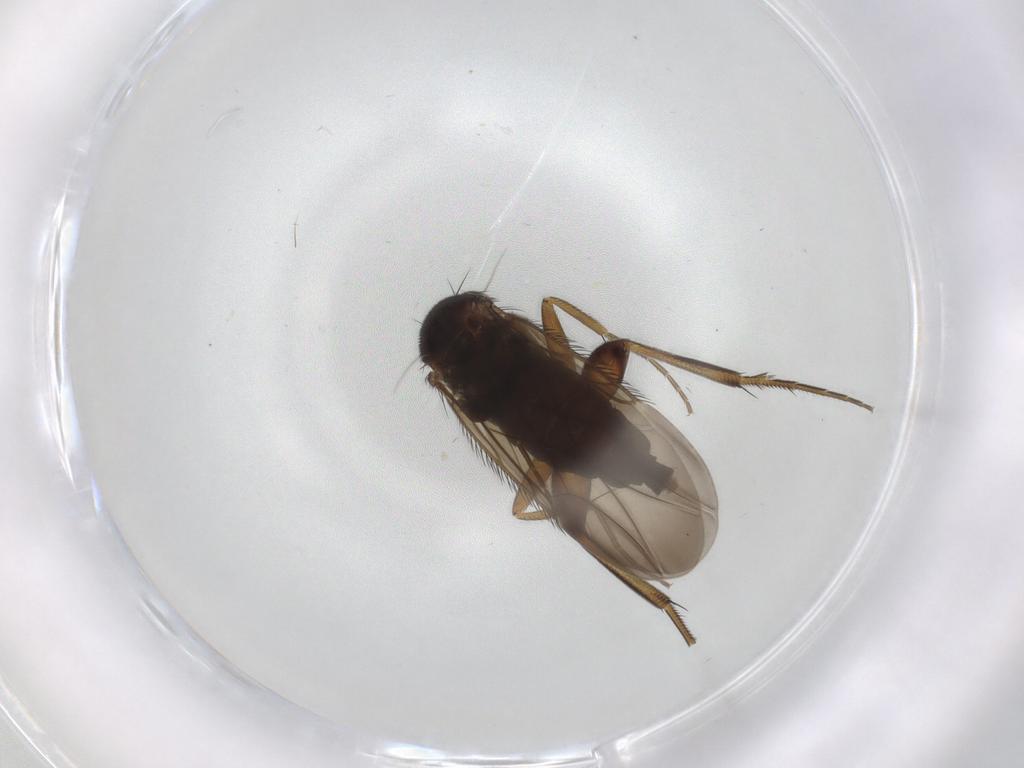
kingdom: Animalia
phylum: Arthropoda
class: Insecta
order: Diptera
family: Phoridae
